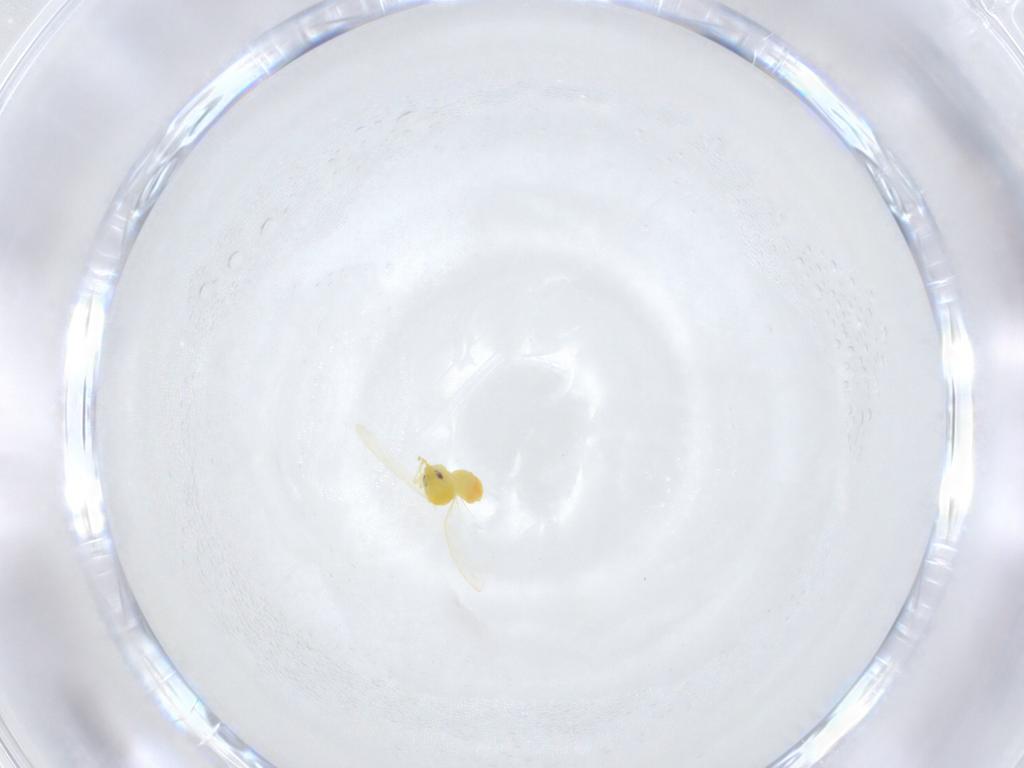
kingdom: Animalia
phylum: Arthropoda
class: Insecta
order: Hemiptera
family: Aleyrodidae
